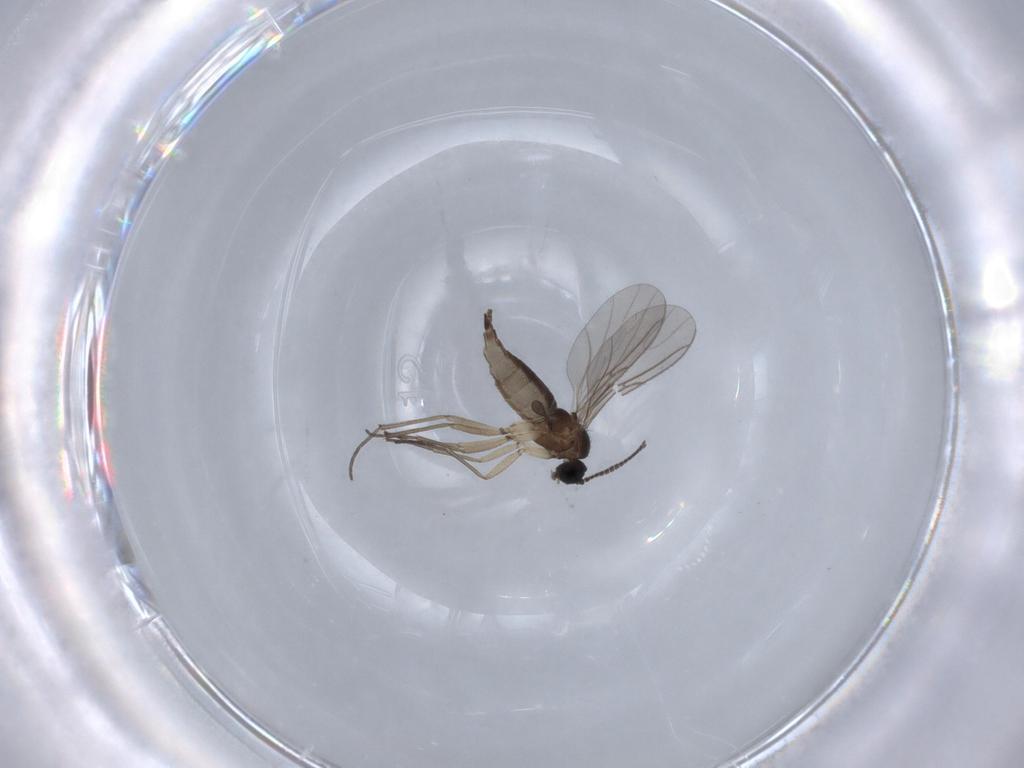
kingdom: Animalia
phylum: Arthropoda
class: Insecta
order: Diptera
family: Sciaridae
